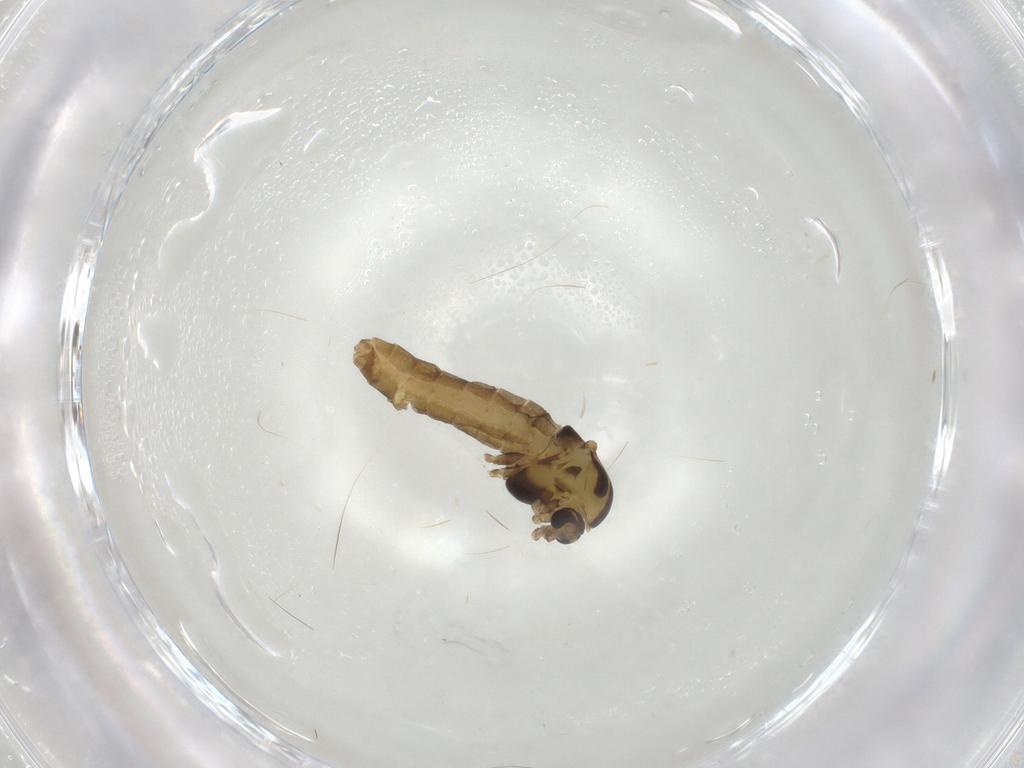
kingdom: Animalia
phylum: Arthropoda
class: Insecta
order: Diptera
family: Chironomidae
